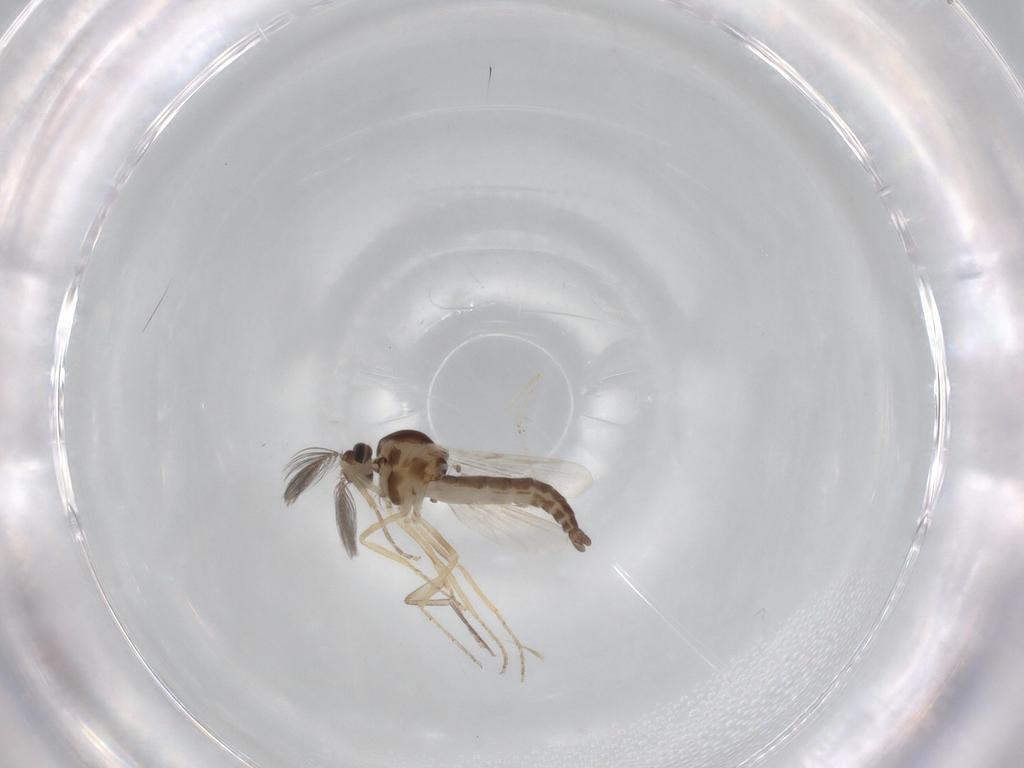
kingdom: Animalia
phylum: Arthropoda
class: Insecta
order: Diptera
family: Ceratopogonidae
